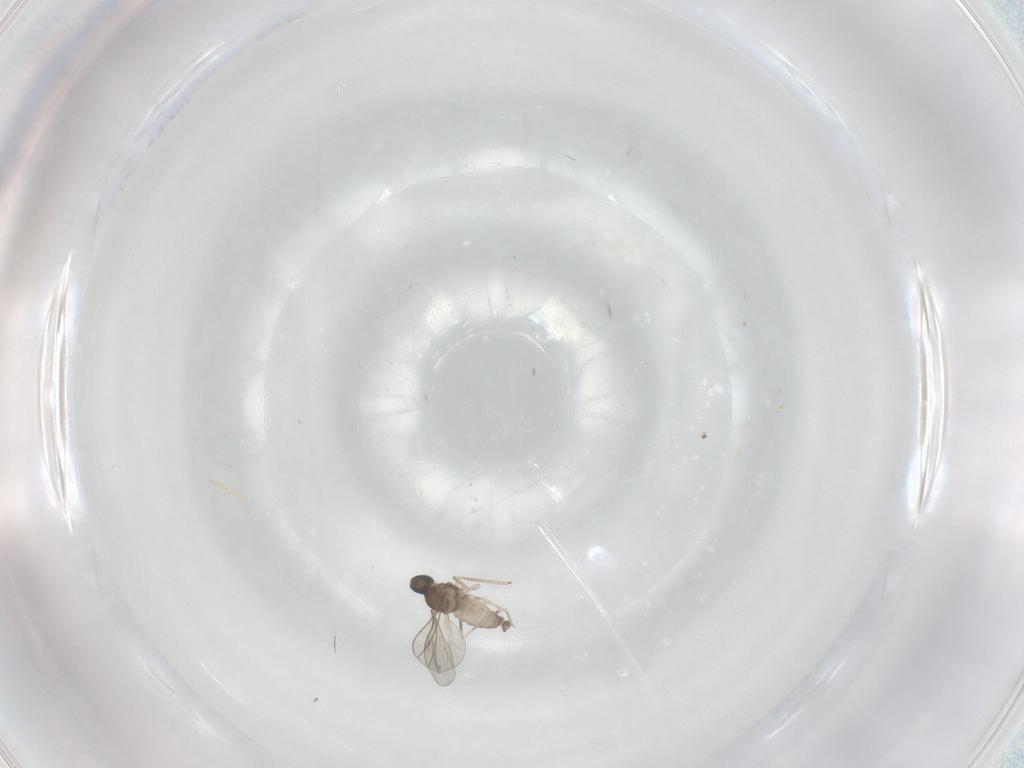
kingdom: Animalia
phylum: Arthropoda
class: Insecta
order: Diptera
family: Cecidomyiidae
